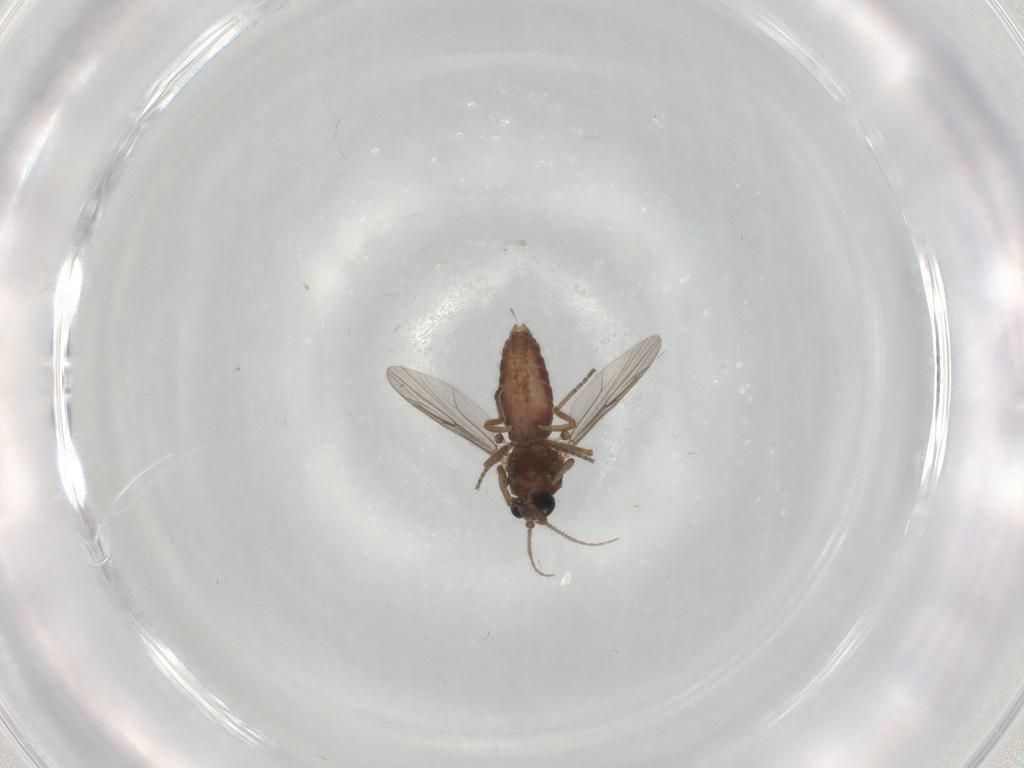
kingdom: Animalia
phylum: Arthropoda
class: Insecta
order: Diptera
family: Ceratopogonidae
